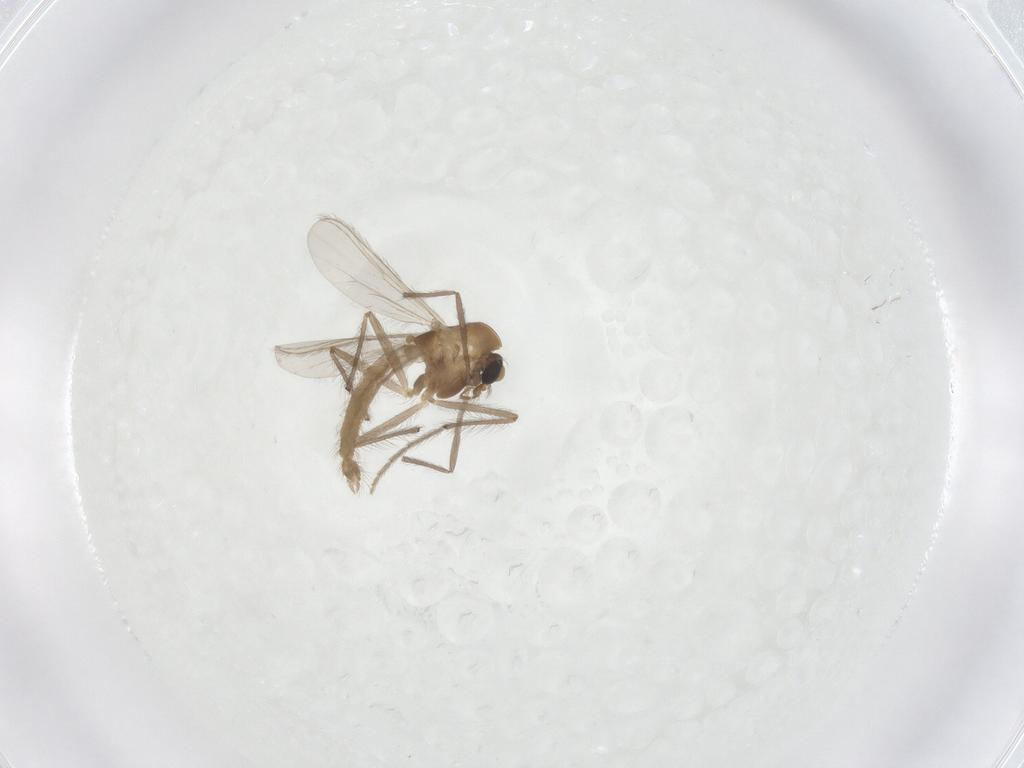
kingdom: Animalia
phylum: Arthropoda
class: Insecta
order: Diptera
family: Chironomidae
